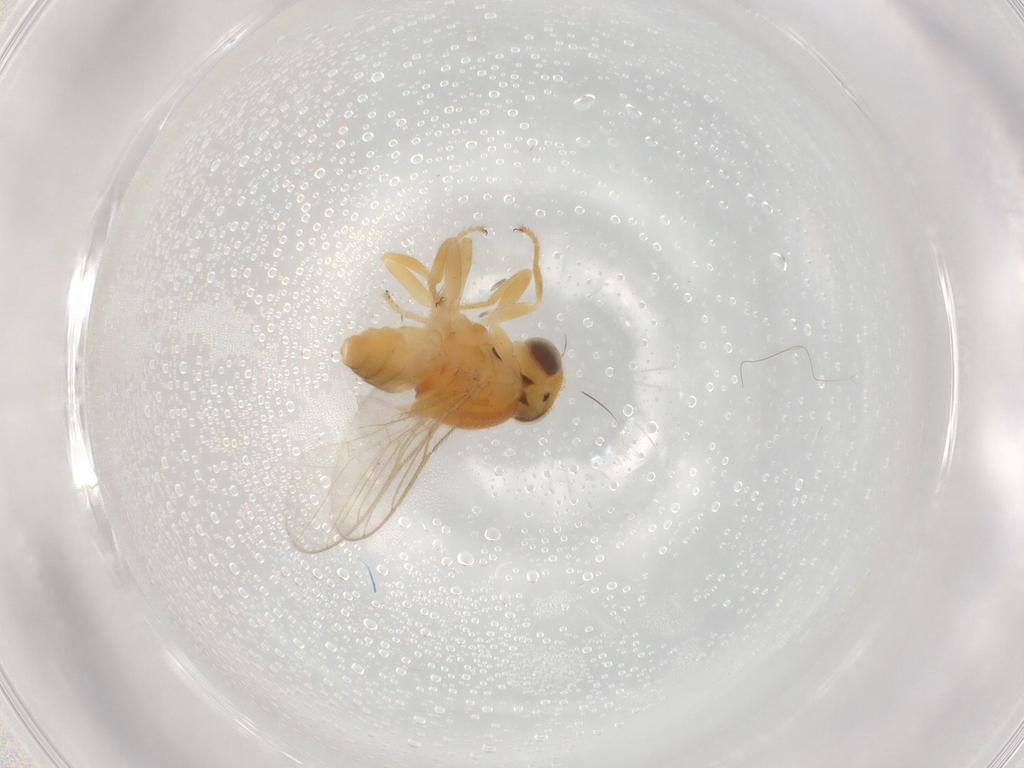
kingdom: Animalia
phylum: Arthropoda
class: Insecta
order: Diptera
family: Chloropidae
